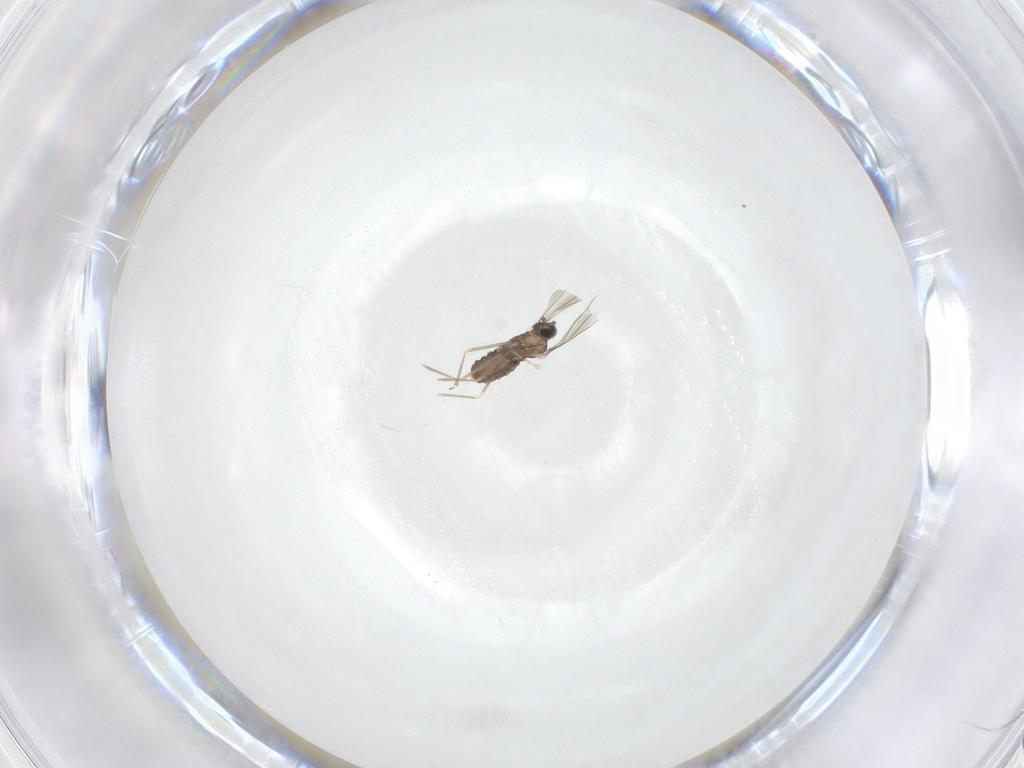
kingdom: Animalia
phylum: Arthropoda
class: Insecta
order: Diptera
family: Cecidomyiidae
